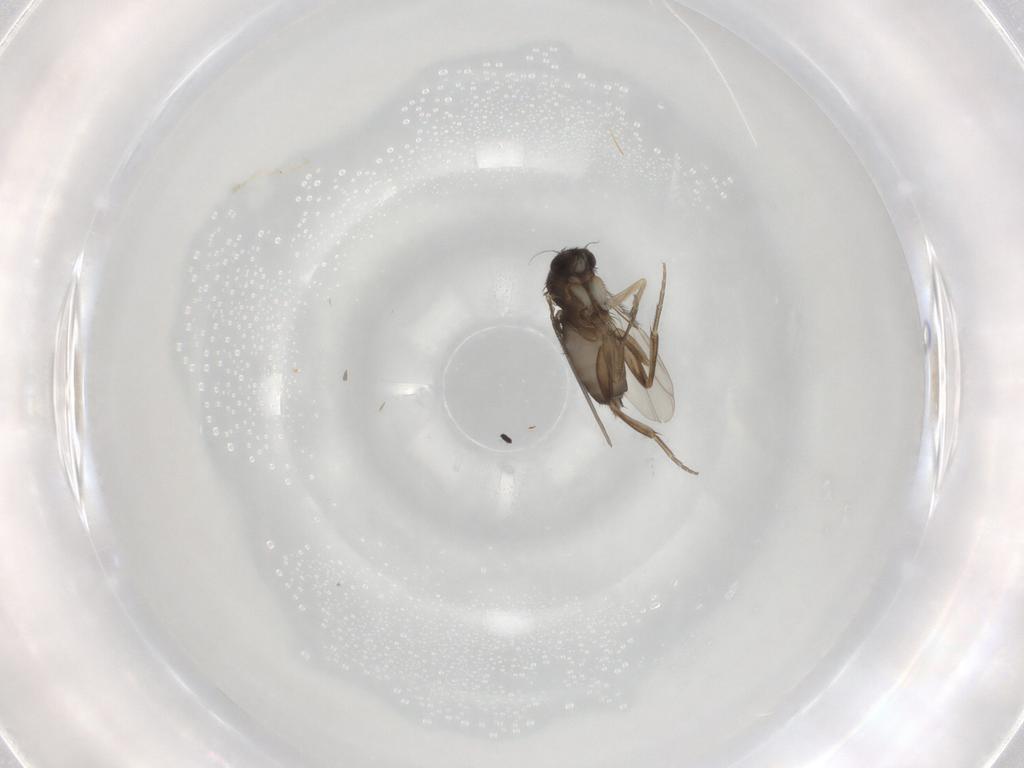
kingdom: Animalia
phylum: Arthropoda
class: Insecta
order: Diptera
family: Phoridae
